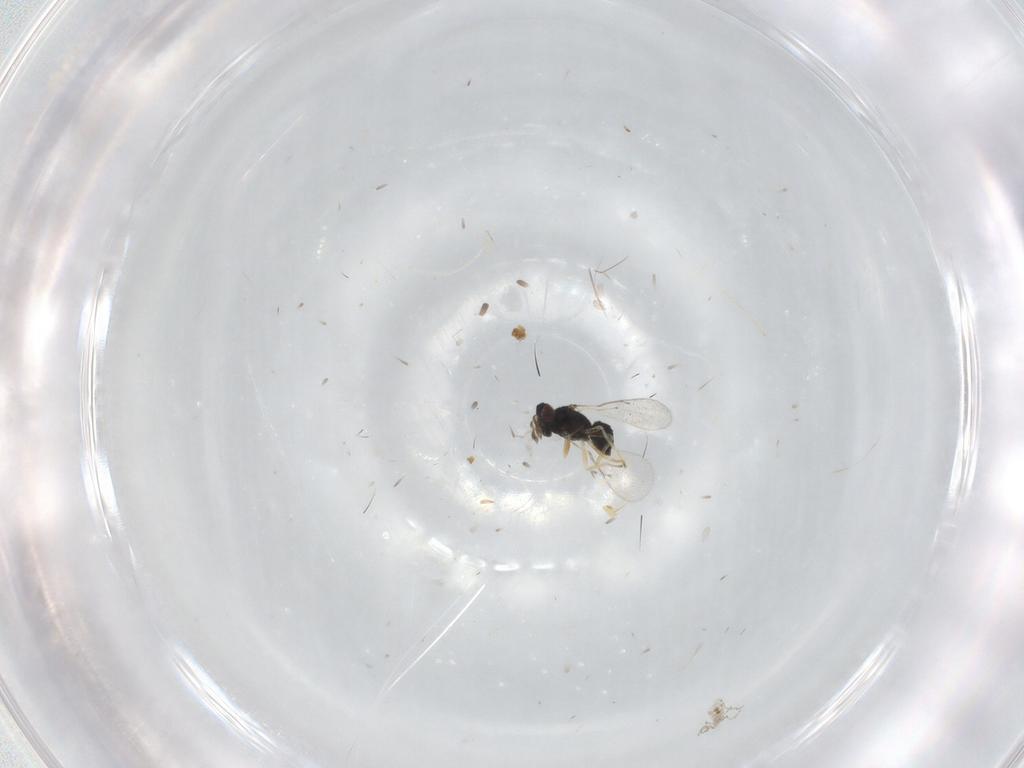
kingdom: Animalia
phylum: Arthropoda
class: Insecta
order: Hymenoptera
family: Eulophidae
